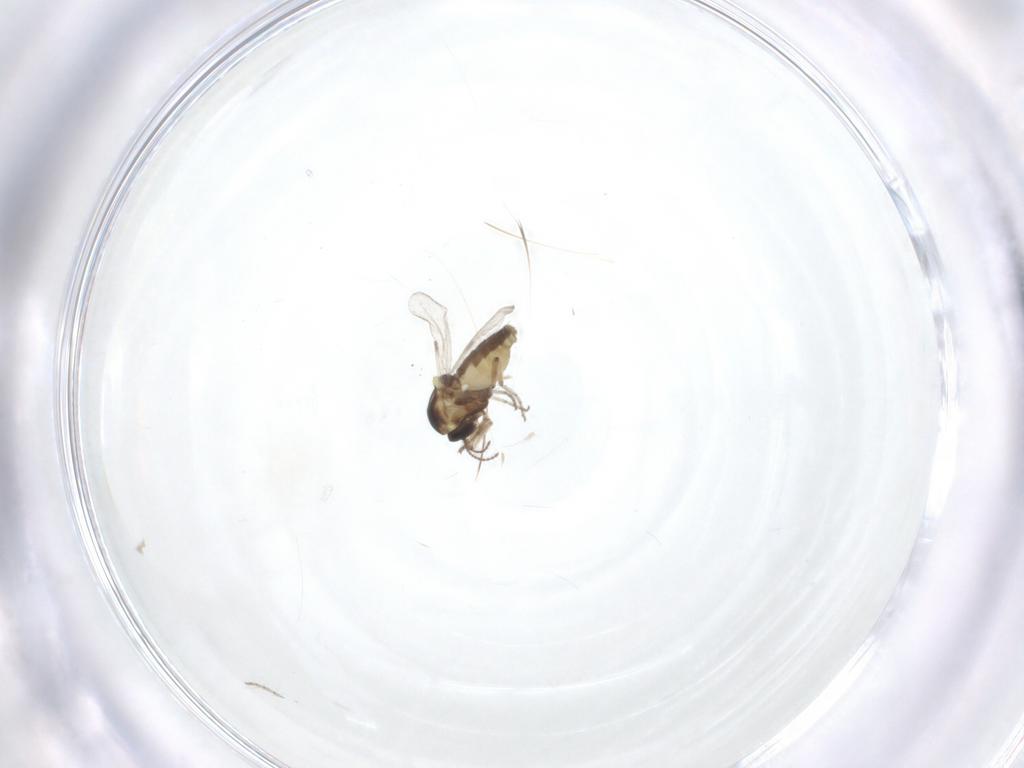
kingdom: Animalia
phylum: Arthropoda
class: Insecta
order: Diptera
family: Ceratopogonidae
